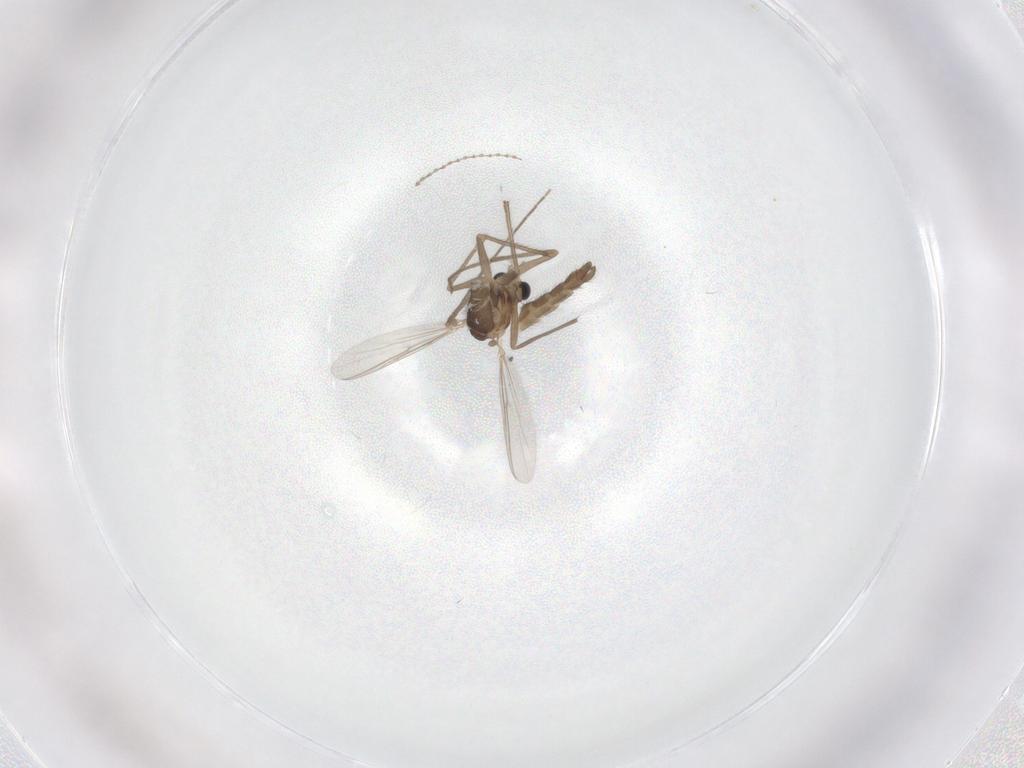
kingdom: Animalia
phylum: Arthropoda
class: Insecta
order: Diptera
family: Chironomidae
